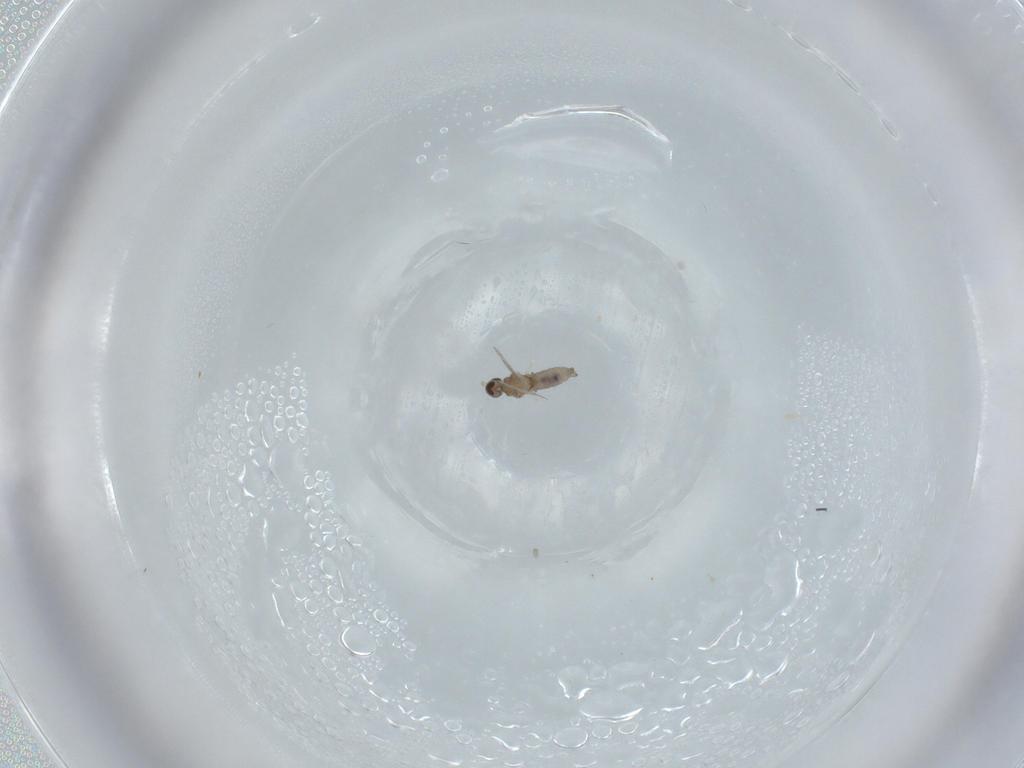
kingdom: Animalia
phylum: Arthropoda
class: Insecta
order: Diptera
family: Cecidomyiidae
